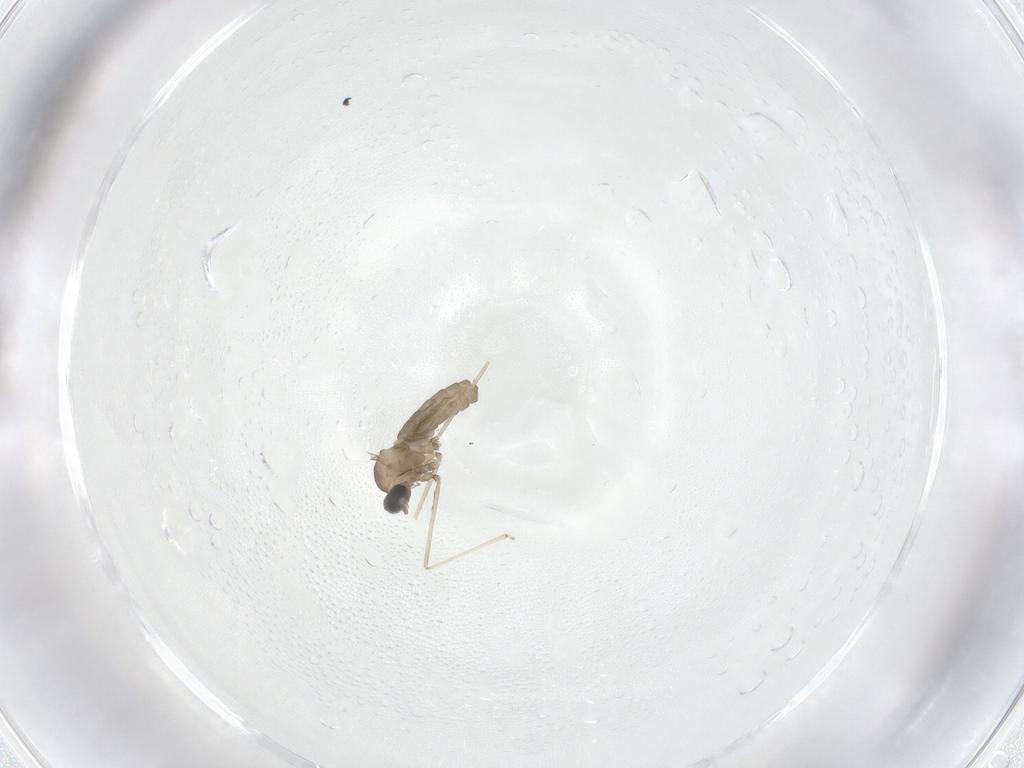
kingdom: Animalia
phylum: Arthropoda
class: Insecta
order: Diptera
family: Cecidomyiidae
